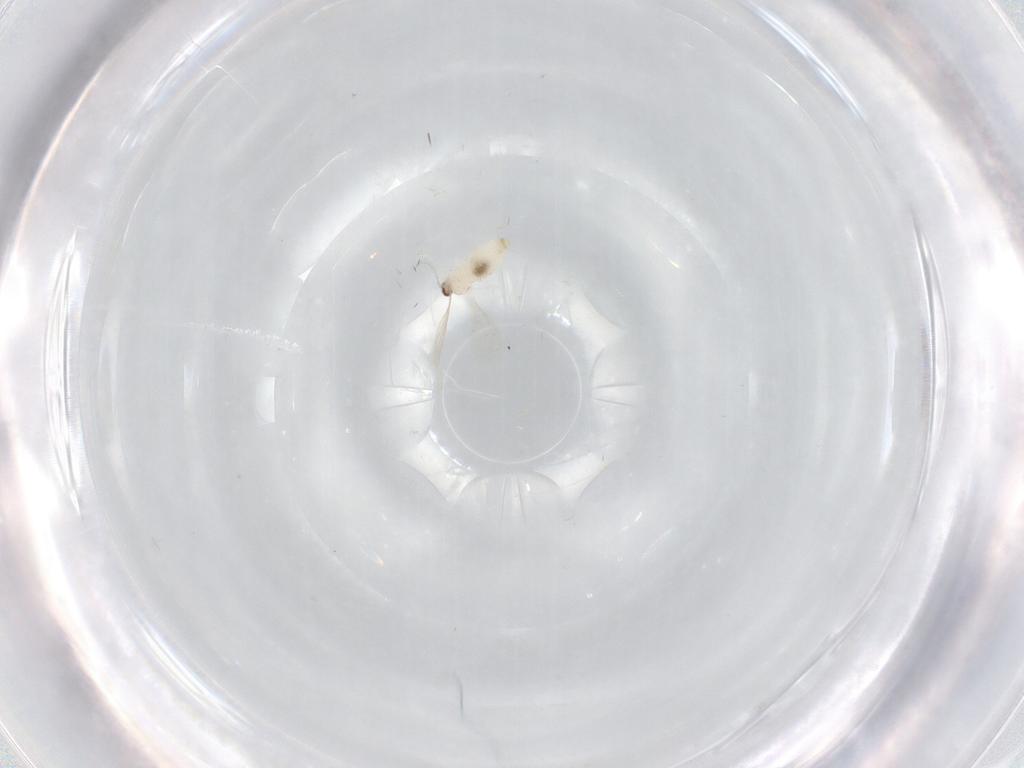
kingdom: Animalia
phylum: Arthropoda
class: Insecta
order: Diptera
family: Cecidomyiidae
